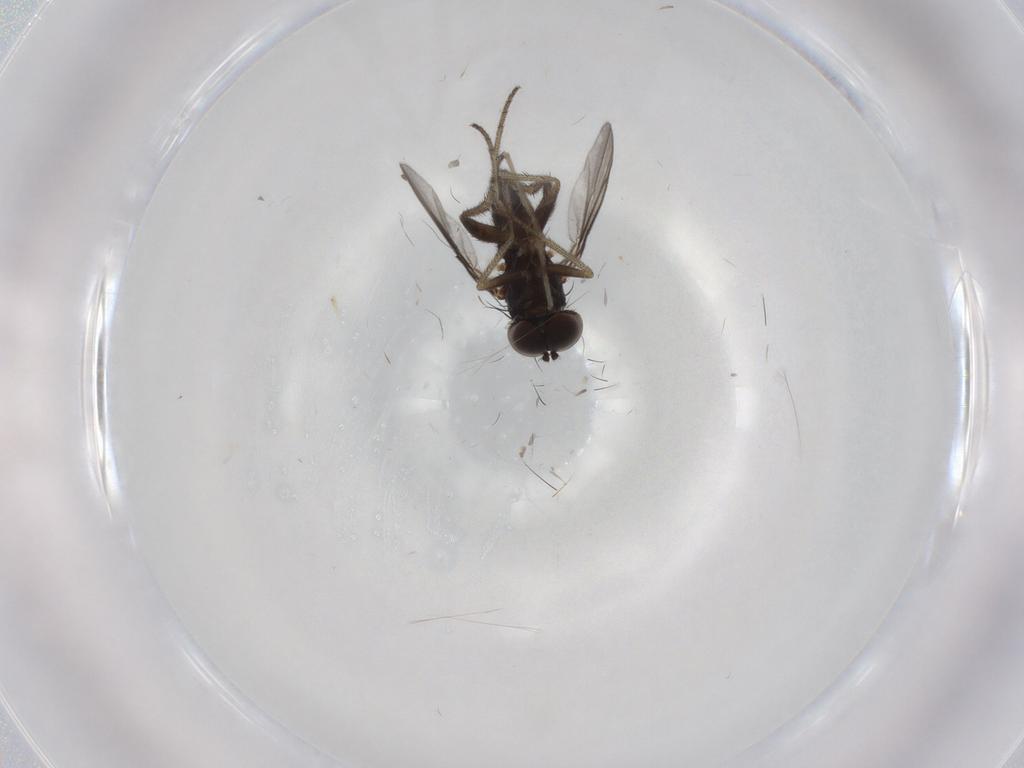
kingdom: Animalia
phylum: Arthropoda
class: Insecta
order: Diptera
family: Chironomidae
